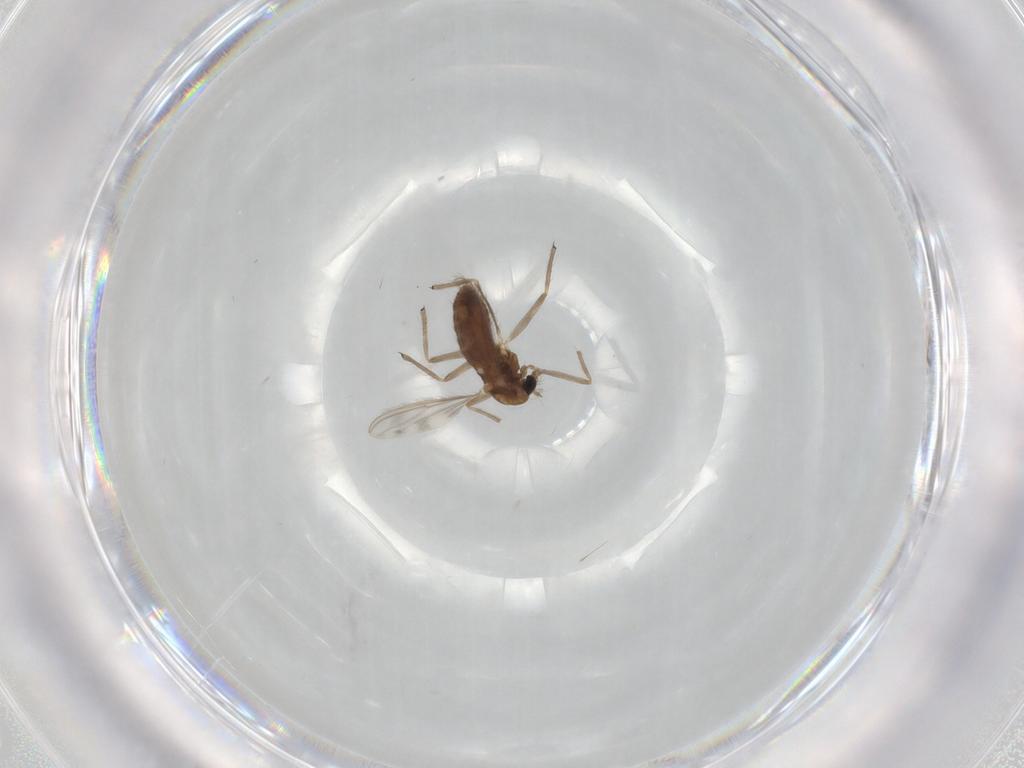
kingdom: Animalia
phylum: Arthropoda
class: Insecta
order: Diptera
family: Chironomidae
